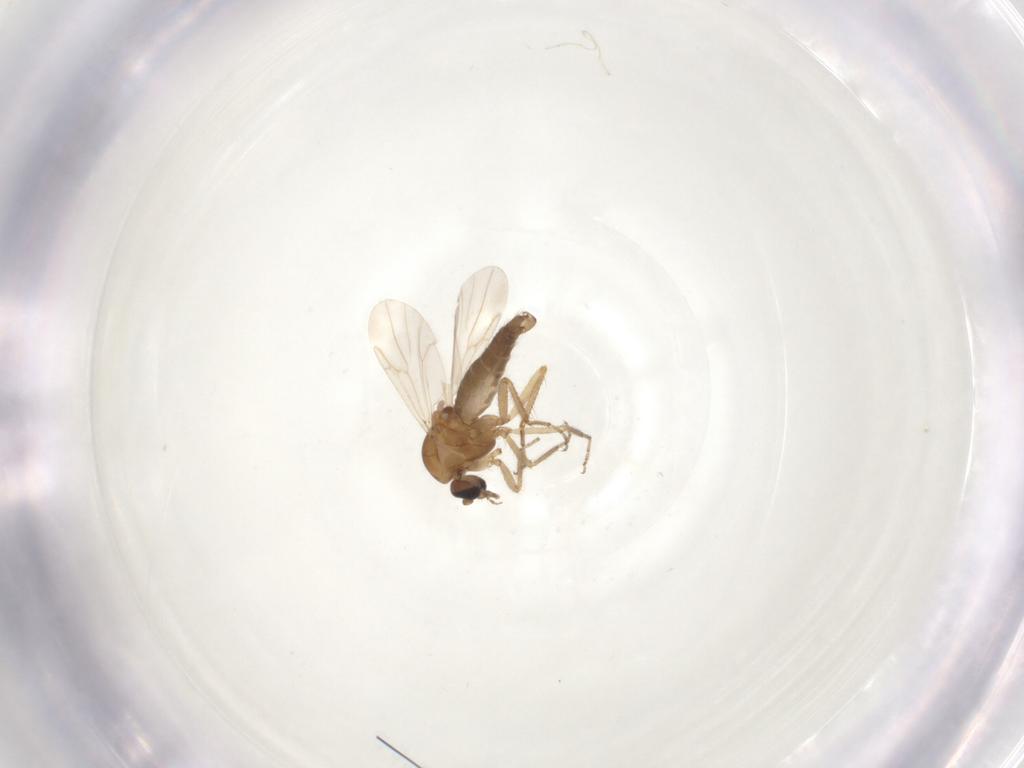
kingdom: Animalia
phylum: Arthropoda
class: Insecta
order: Diptera
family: Ceratopogonidae
